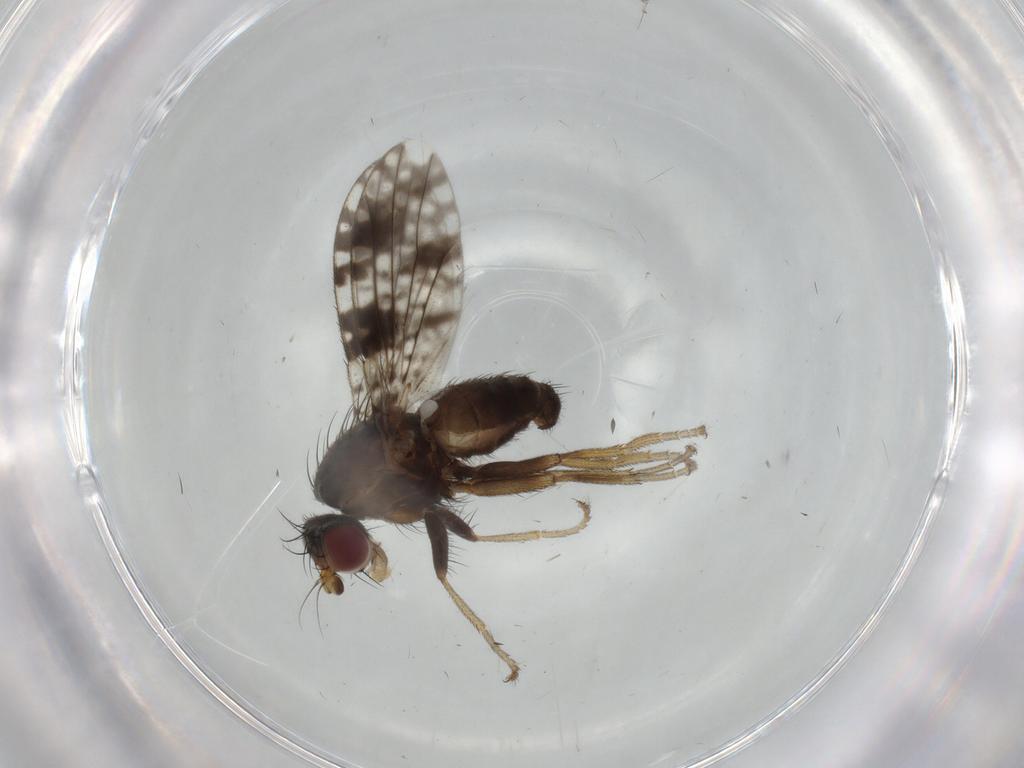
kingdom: Animalia
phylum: Arthropoda
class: Insecta
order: Diptera
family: Tephritidae
